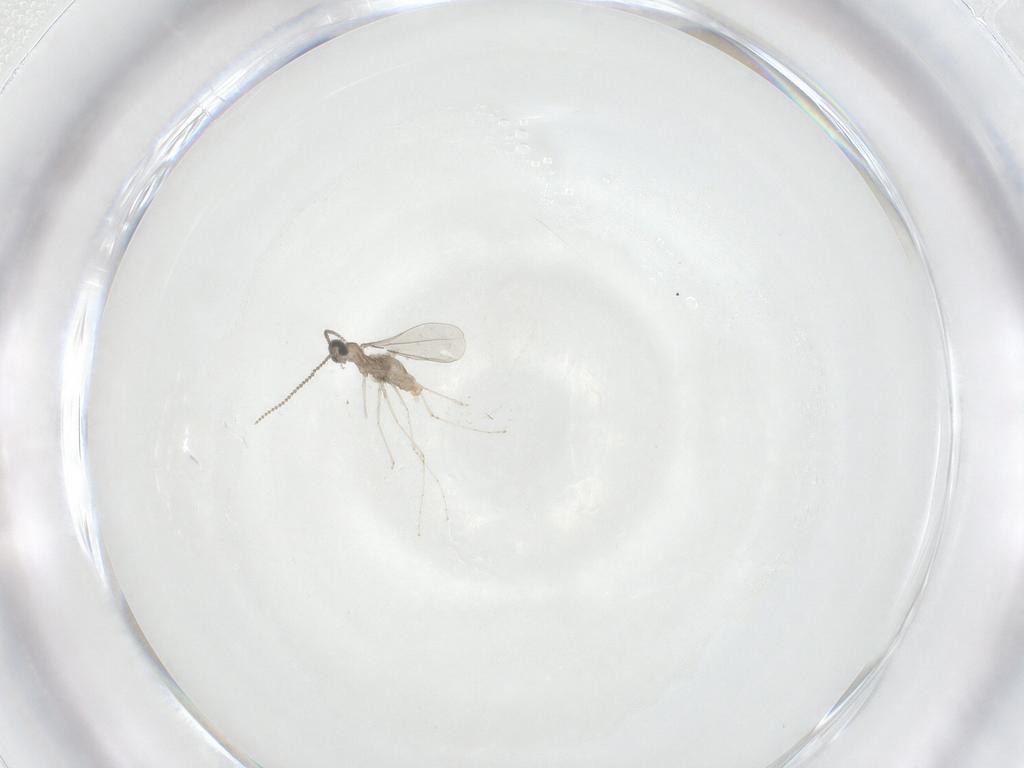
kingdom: Animalia
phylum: Arthropoda
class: Insecta
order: Diptera
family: Cecidomyiidae
